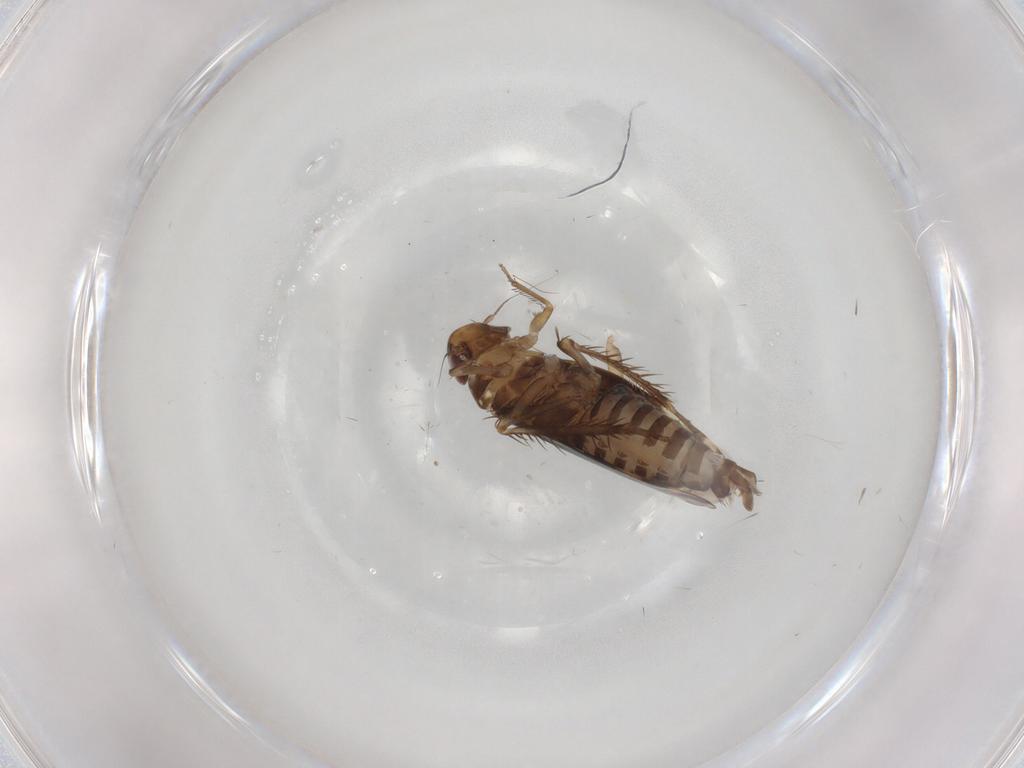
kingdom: Animalia
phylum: Arthropoda
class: Insecta
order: Hemiptera
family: Cicadellidae
